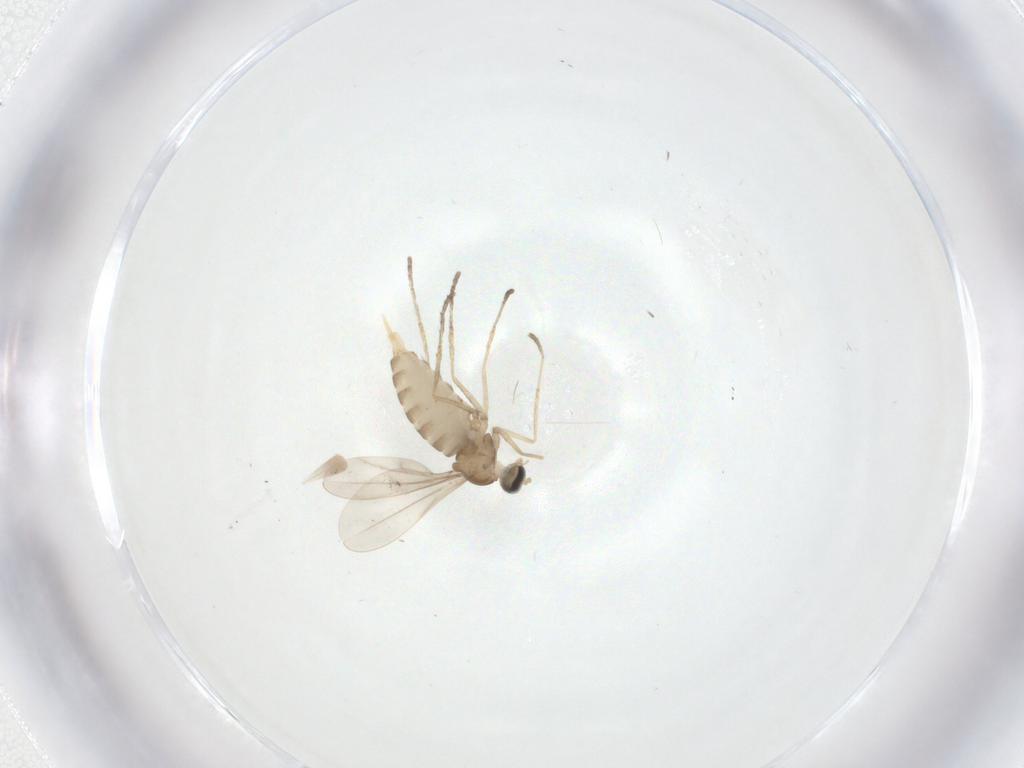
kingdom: Animalia
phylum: Arthropoda
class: Insecta
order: Diptera
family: Cecidomyiidae
